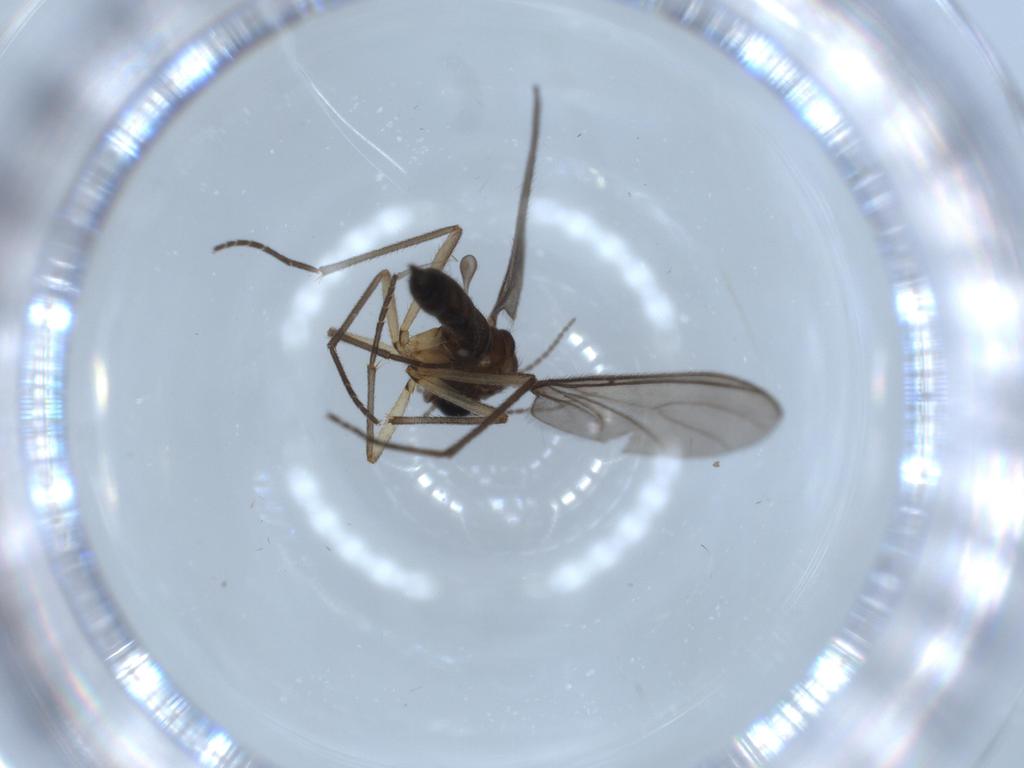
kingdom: Animalia
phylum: Arthropoda
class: Insecta
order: Diptera
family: Sciaridae
